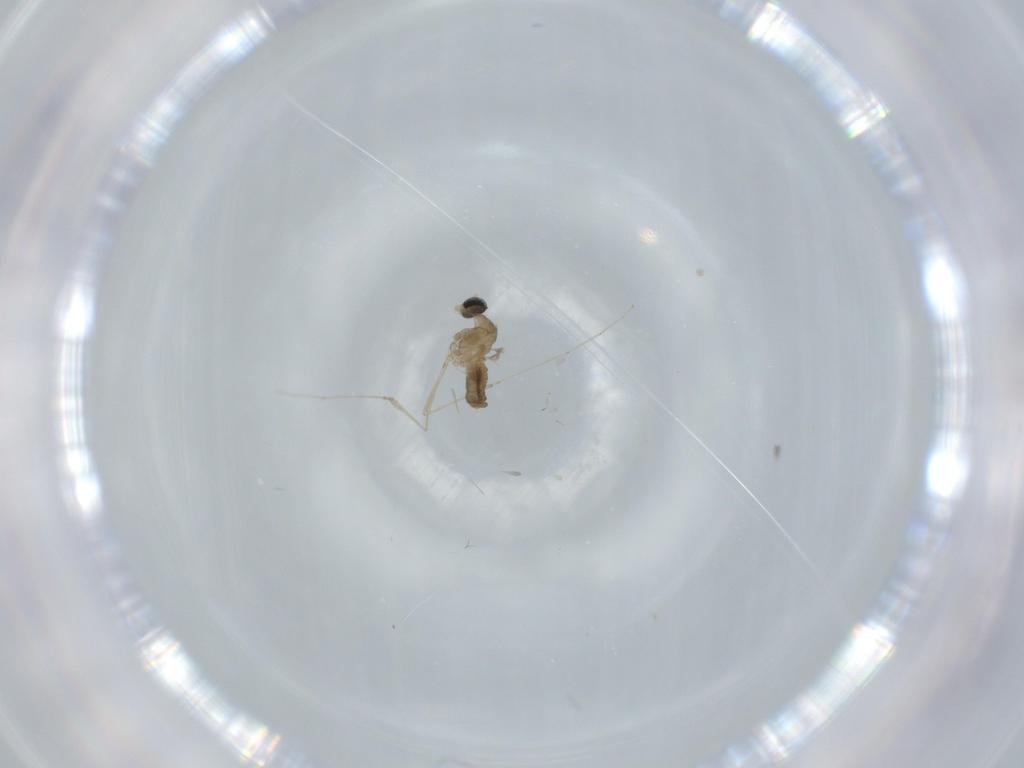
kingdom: Animalia
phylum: Arthropoda
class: Insecta
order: Diptera
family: Cecidomyiidae
